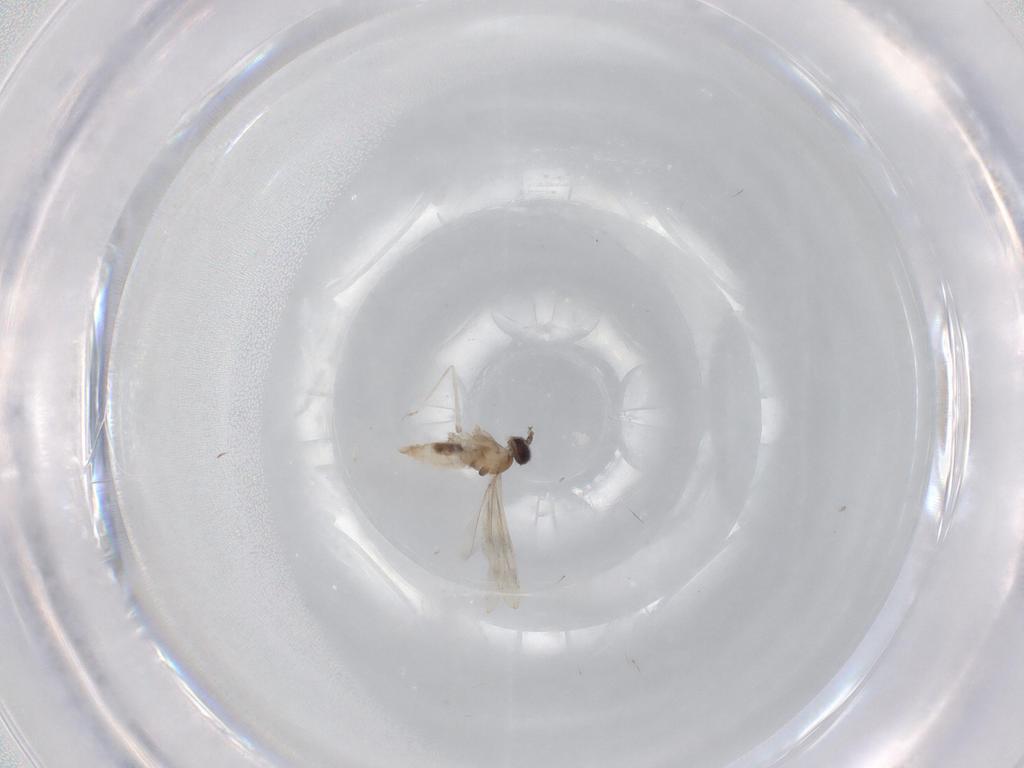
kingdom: Animalia
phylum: Arthropoda
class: Insecta
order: Diptera
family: Cecidomyiidae
